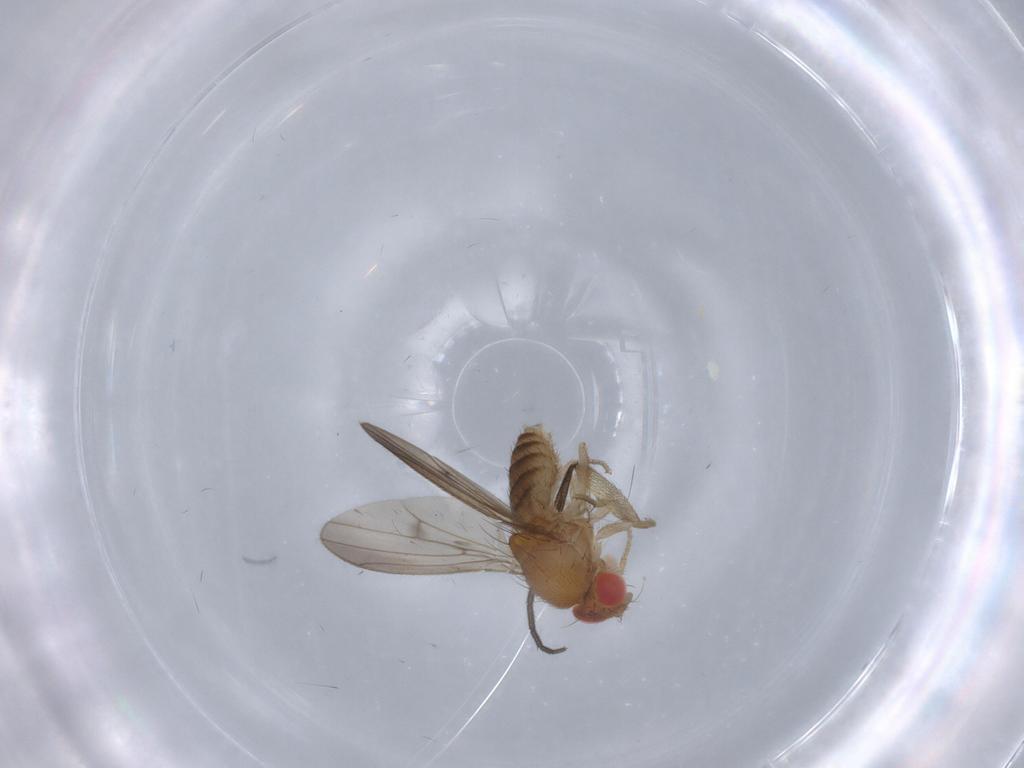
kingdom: Animalia
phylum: Arthropoda
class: Insecta
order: Diptera
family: Drosophilidae
